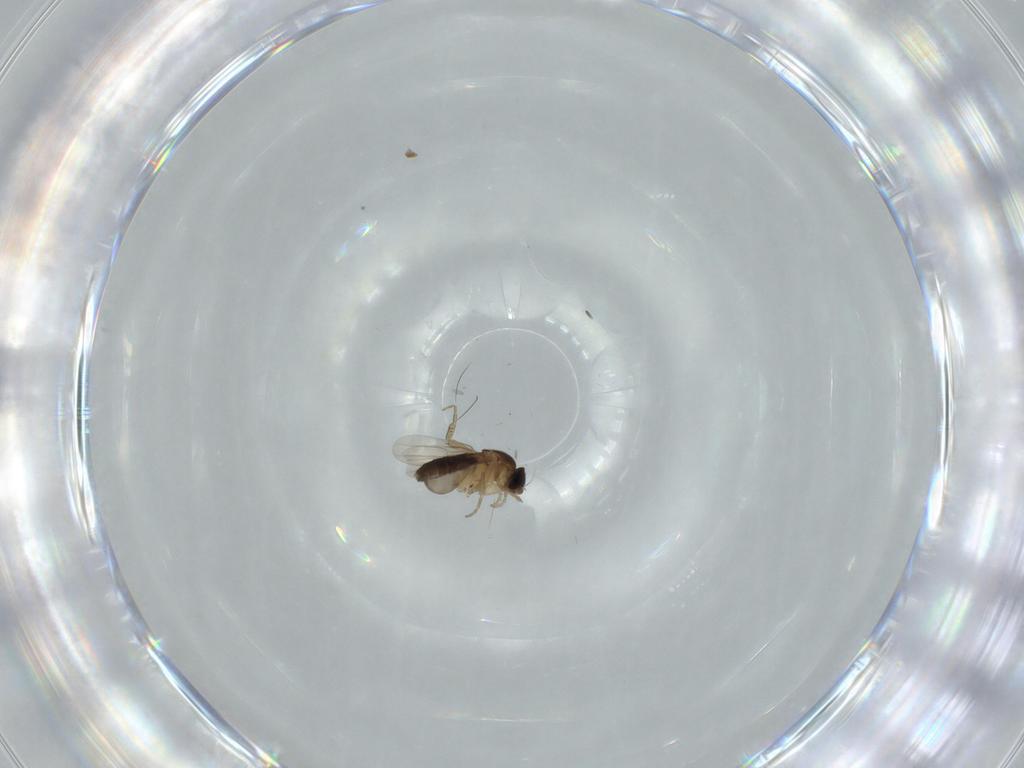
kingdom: Animalia
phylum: Arthropoda
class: Insecta
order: Diptera
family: Phoridae
